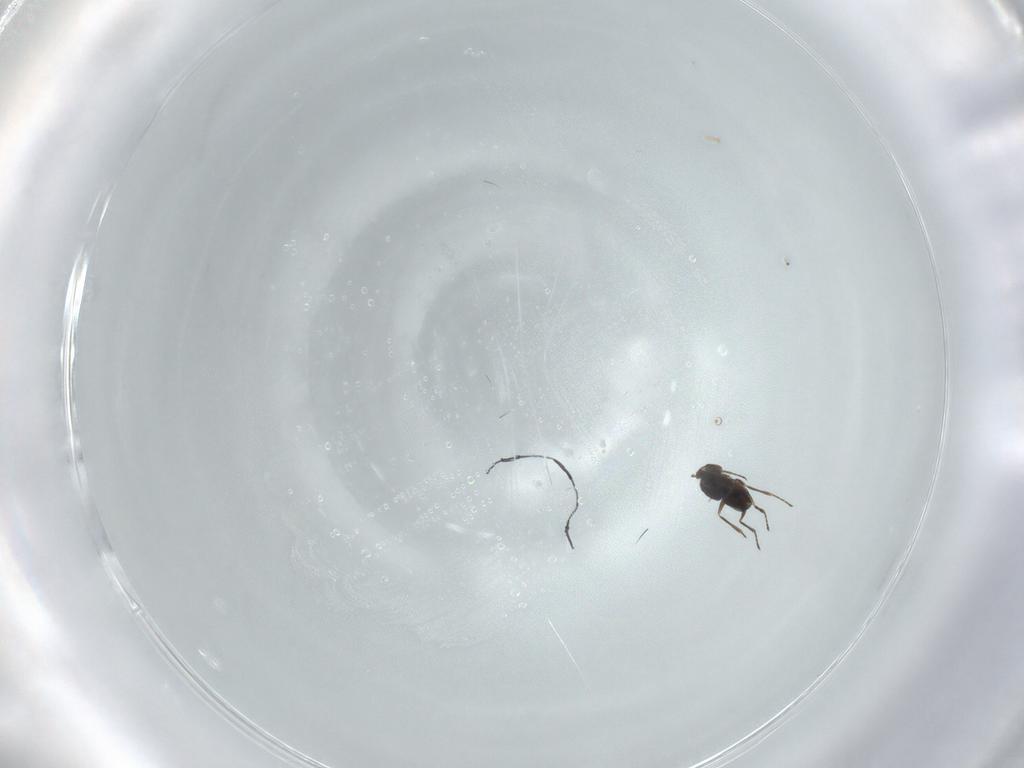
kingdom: Animalia
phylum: Arthropoda
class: Insecta
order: Hymenoptera
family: Mymaridae
